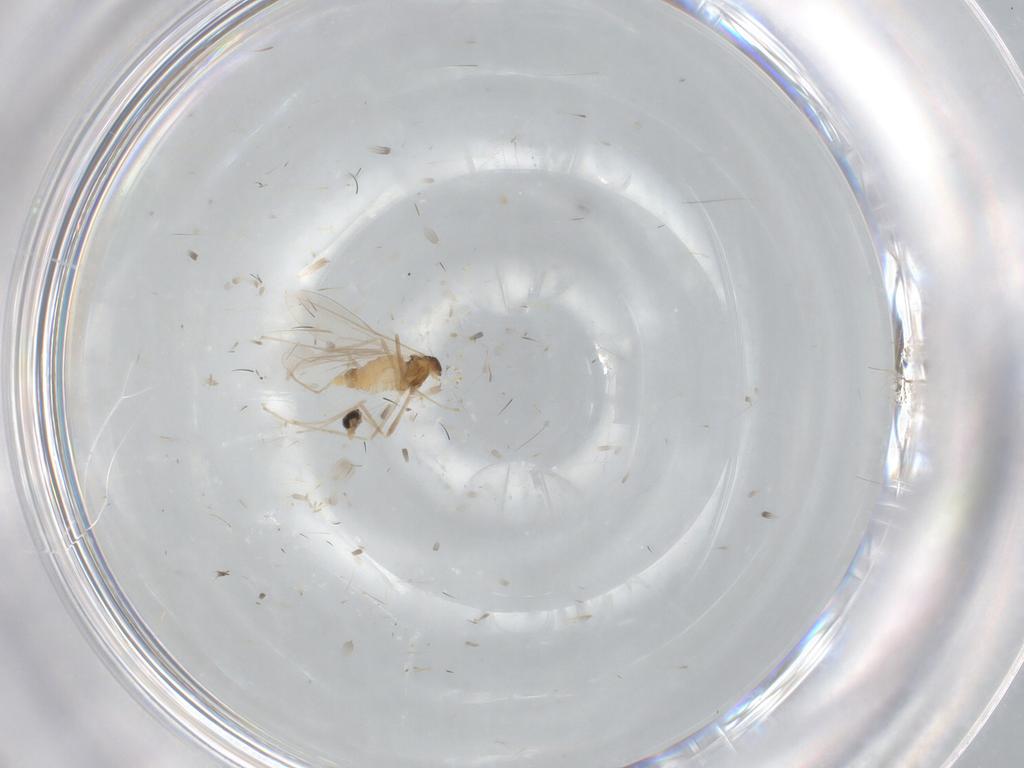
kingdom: Animalia
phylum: Arthropoda
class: Insecta
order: Diptera
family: Cecidomyiidae
